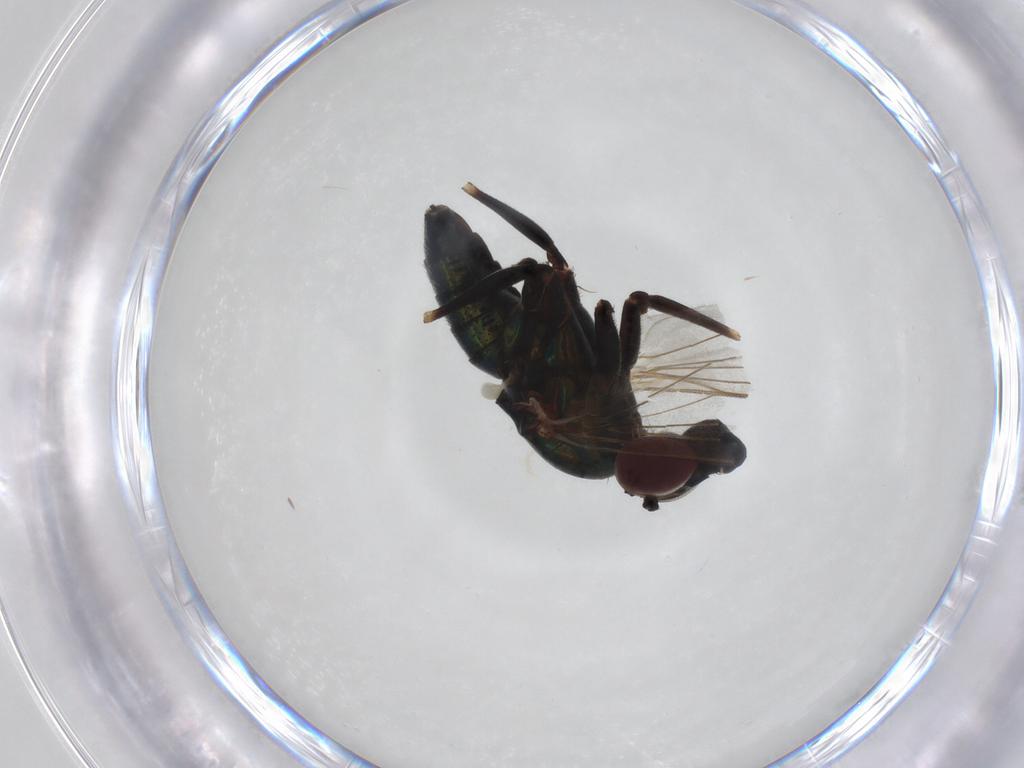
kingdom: Animalia
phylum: Arthropoda
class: Insecta
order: Diptera
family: Dolichopodidae
